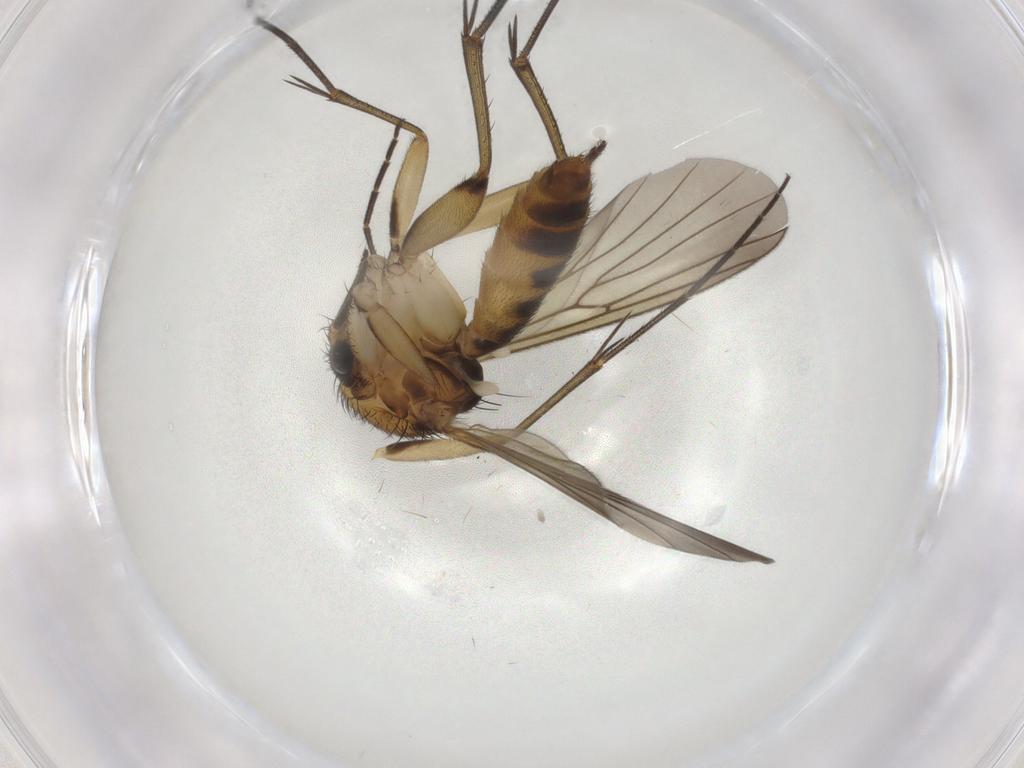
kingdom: Animalia
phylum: Arthropoda
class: Insecta
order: Diptera
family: Mycetophilidae
